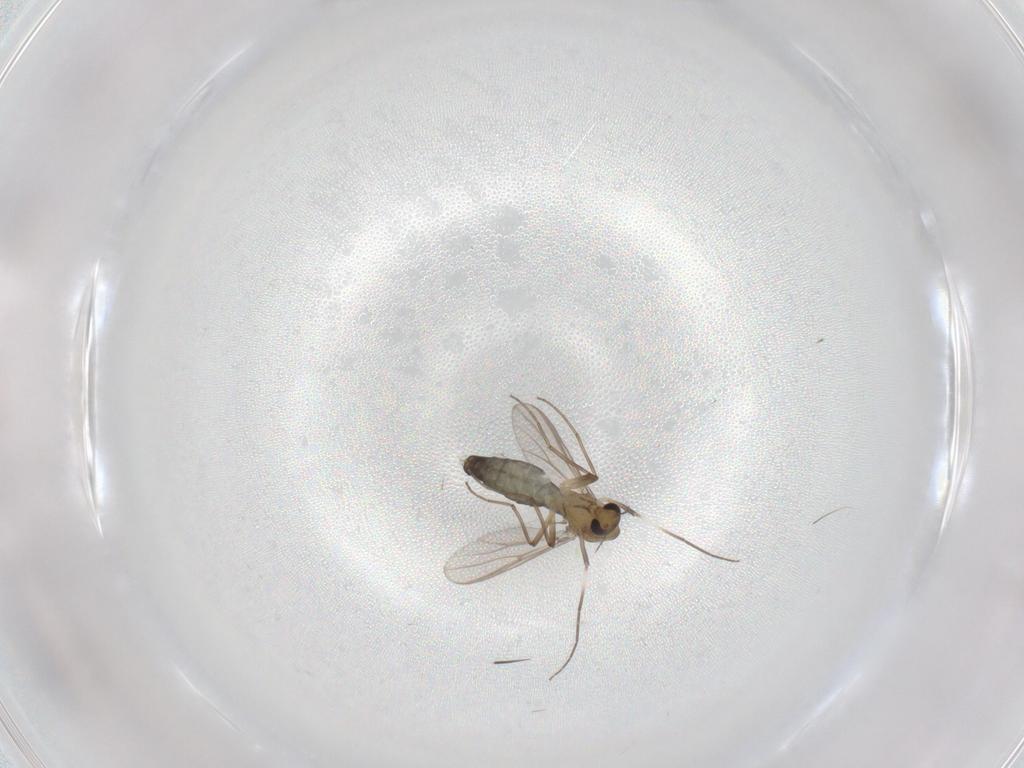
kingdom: Animalia
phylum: Arthropoda
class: Insecta
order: Diptera
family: Chironomidae
